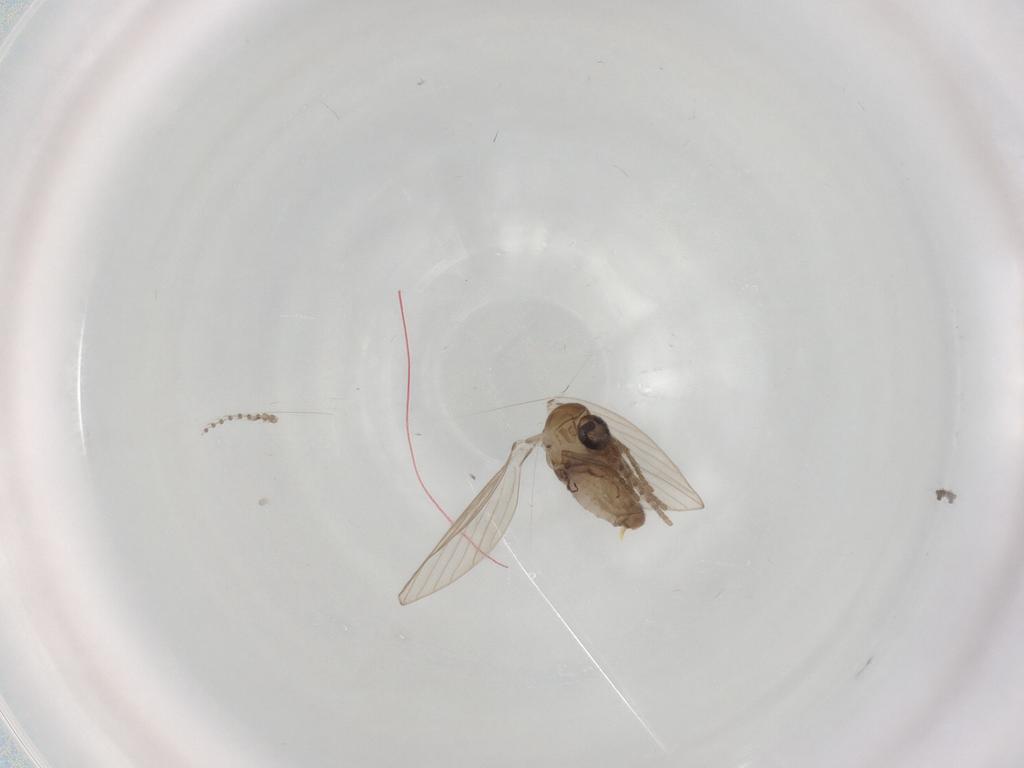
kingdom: Animalia
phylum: Arthropoda
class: Insecta
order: Diptera
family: Psychodidae
